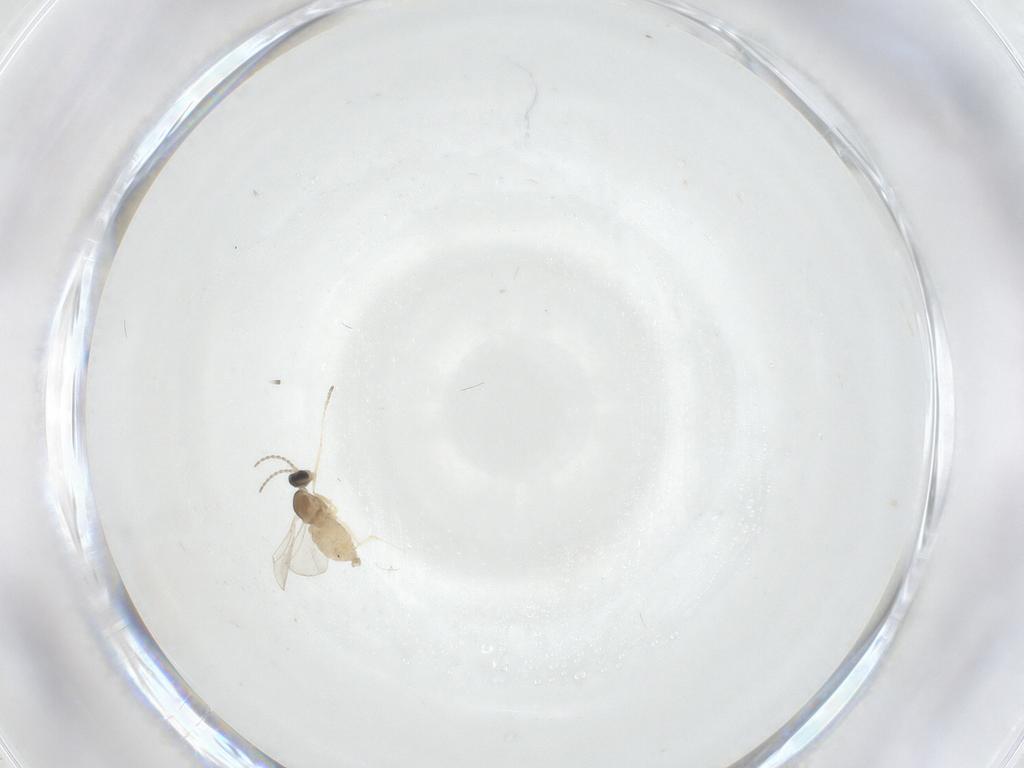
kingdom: Animalia
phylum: Arthropoda
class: Insecta
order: Diptera
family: Cecidomyiidae
